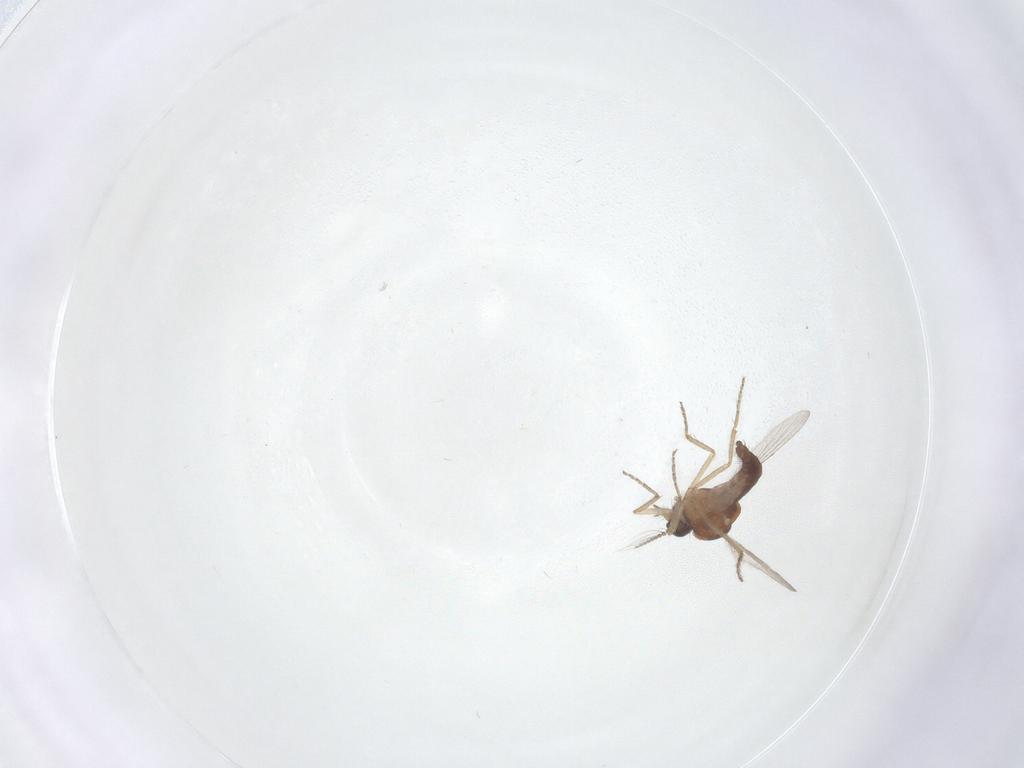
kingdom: Animalia
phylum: Arthropoda
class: Insecta
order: Diptera
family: Ceratopogonidae
